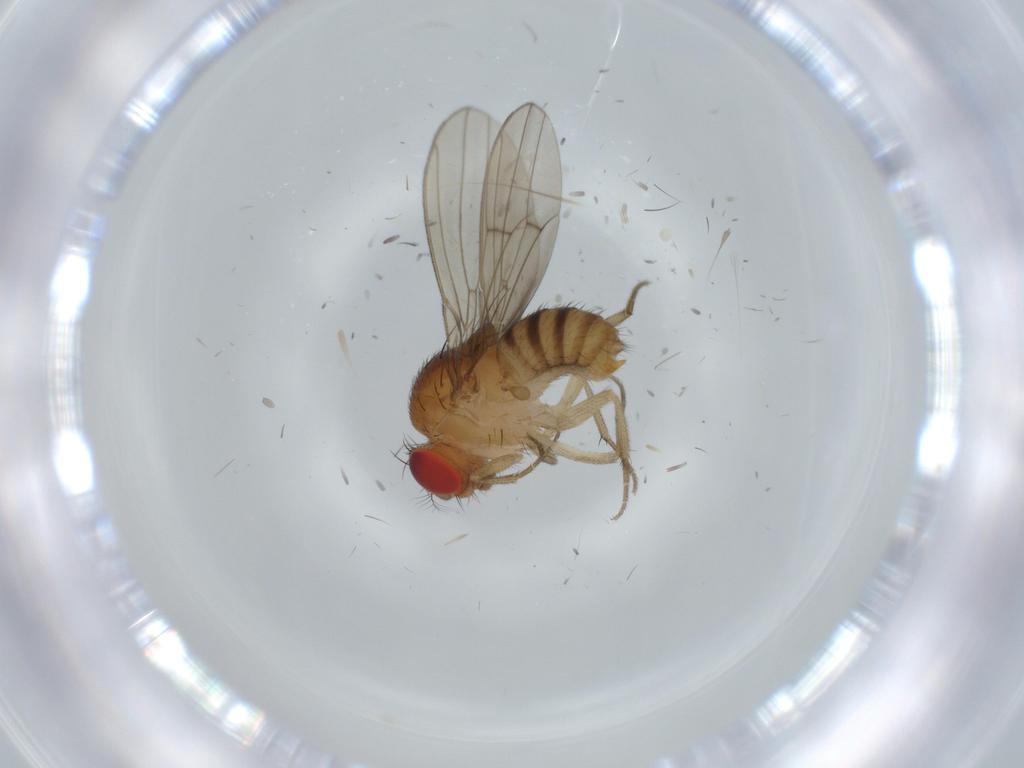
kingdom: Animalia
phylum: Arthropoda
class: Insecta
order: Diptera
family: Drosophilidae
